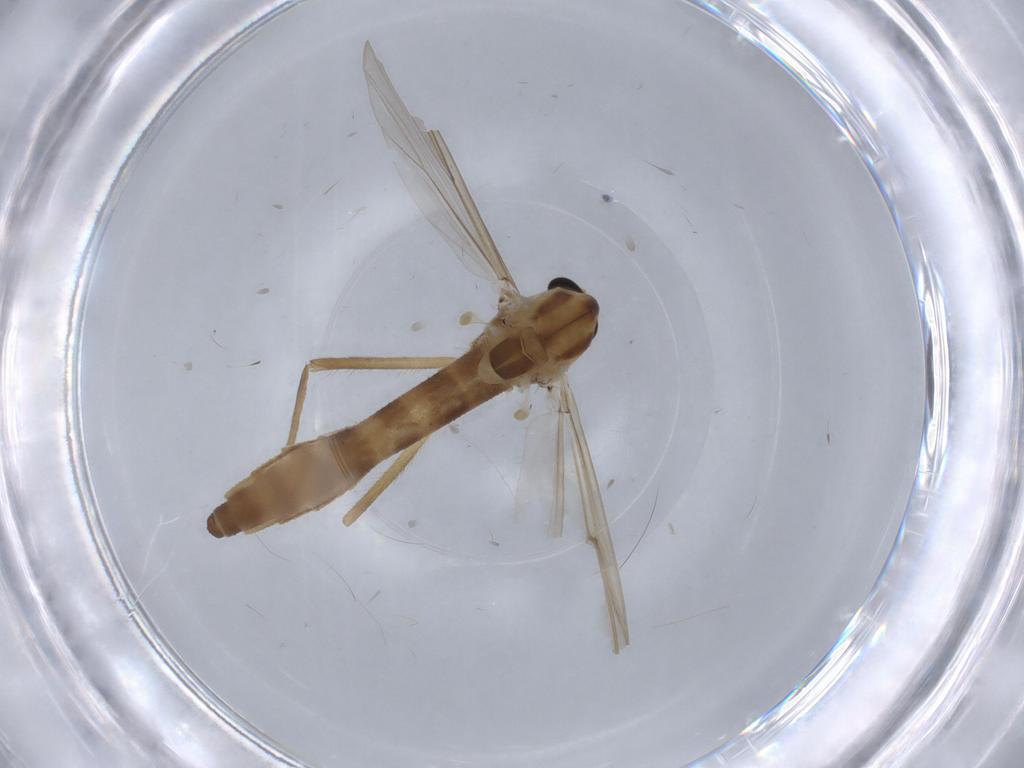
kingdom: Animalia
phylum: Arthropoda
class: Insecta
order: Diptera
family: Chironomidae
